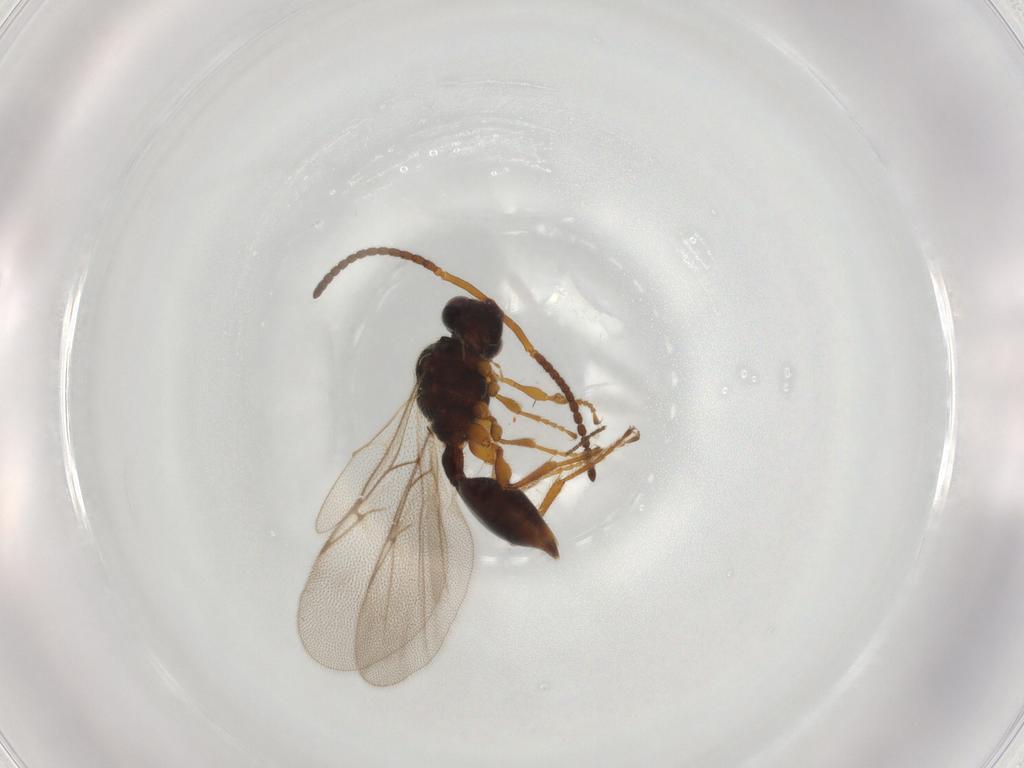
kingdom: Animalia
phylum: Arthropoda
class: Insecta
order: Hymenoptera
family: Diapriidae
